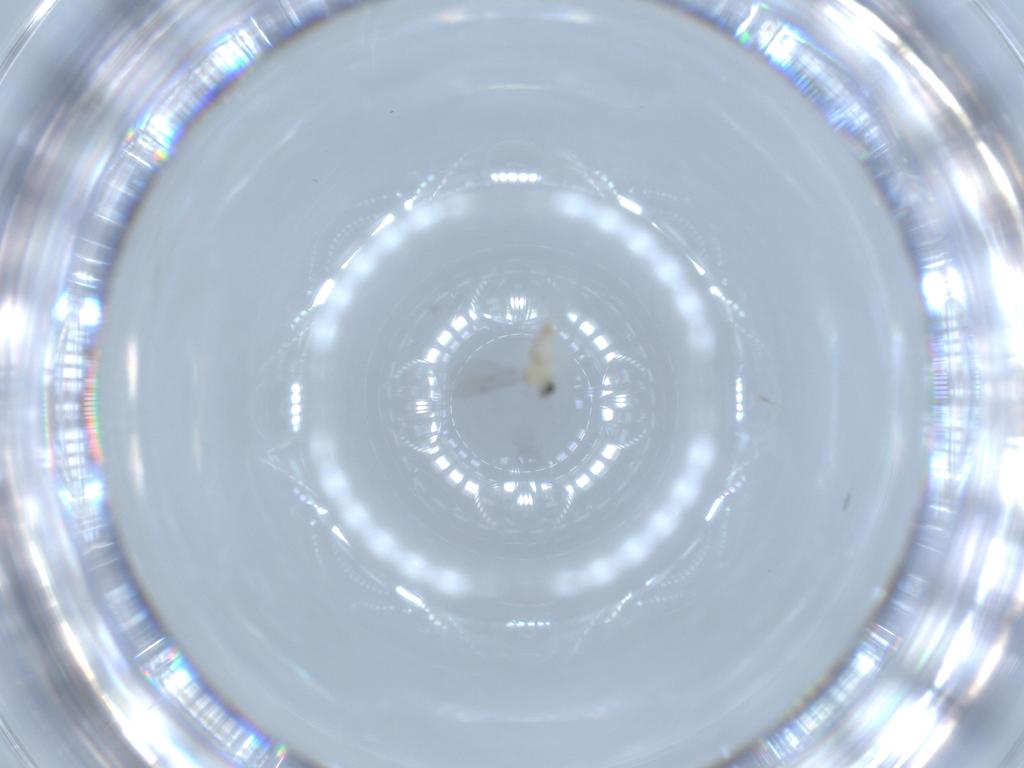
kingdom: Animalia
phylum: Arthropoda
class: Insecta
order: Diptera
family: Cecidomyiidae
